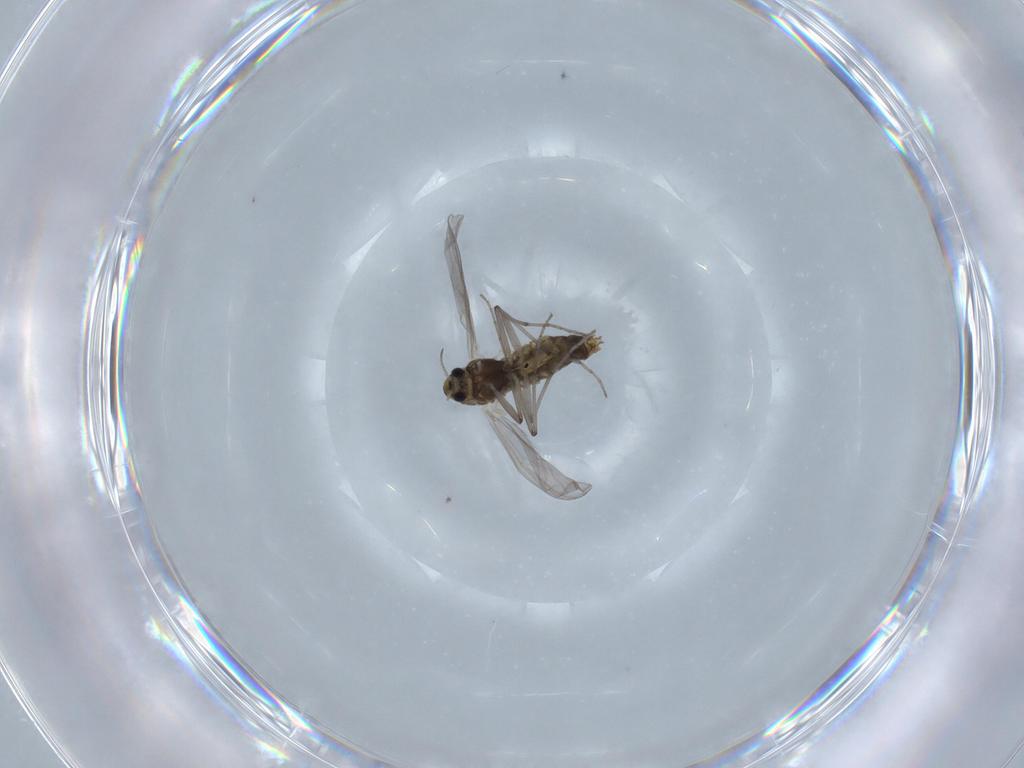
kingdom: Animalia
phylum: Arthropoda
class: Insecta
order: Diptera
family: Chironomidae
